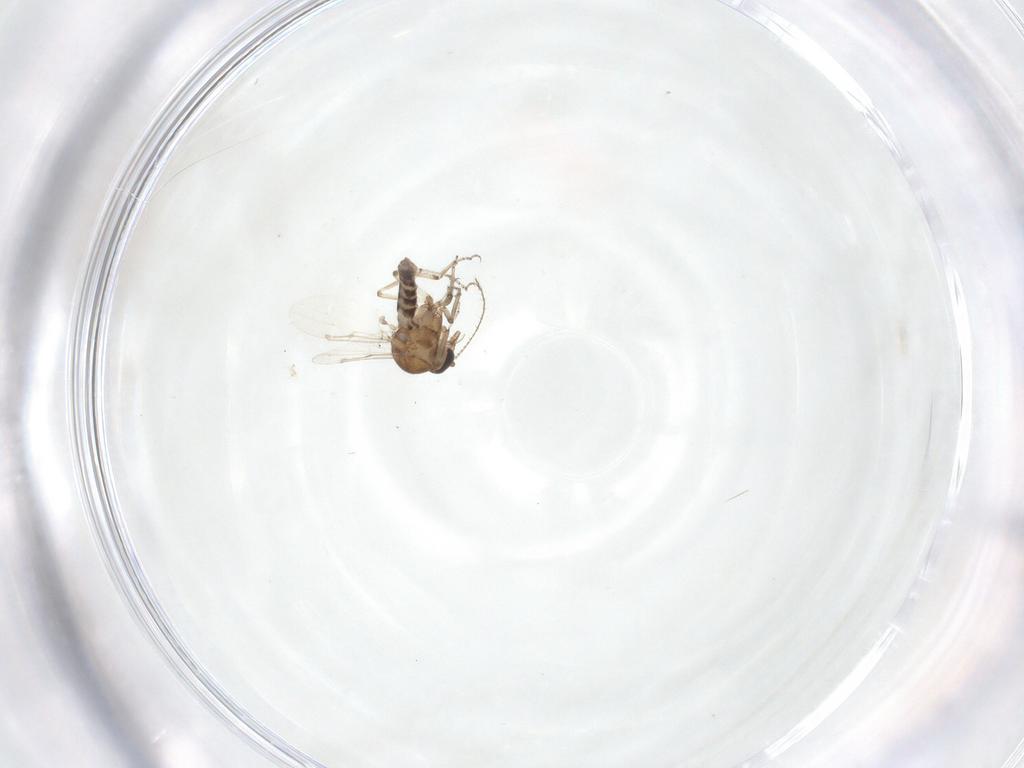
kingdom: Animalia
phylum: Arthropoda
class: Insecta
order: Diptera
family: Ceratopogonidae
